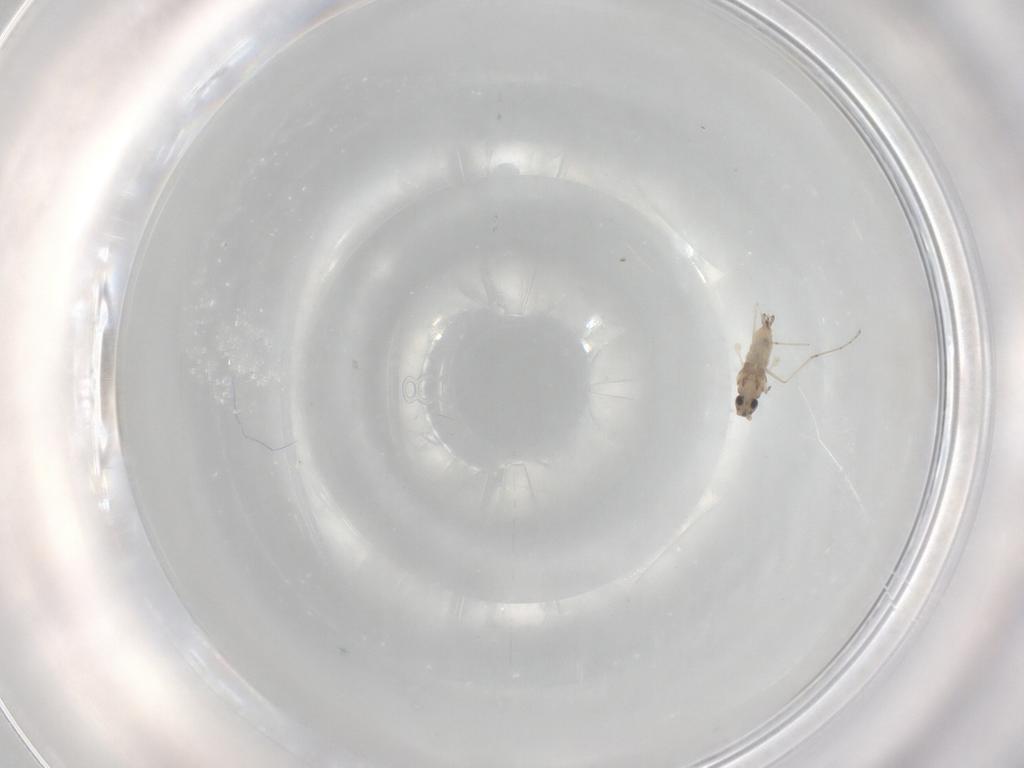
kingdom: Animalia
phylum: Arthropoda
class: Insecta
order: Diptera
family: Cecidomyiidae
